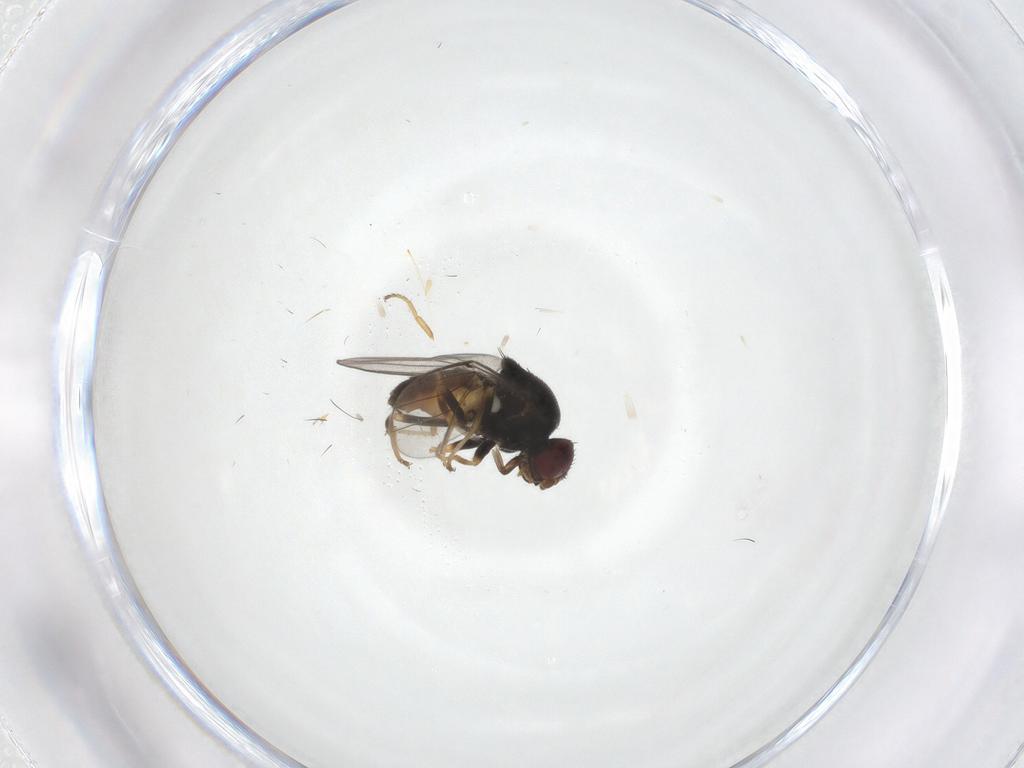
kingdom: Animalia
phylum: Arthropoda
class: Insecta
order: Diptera
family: Chloropidae
